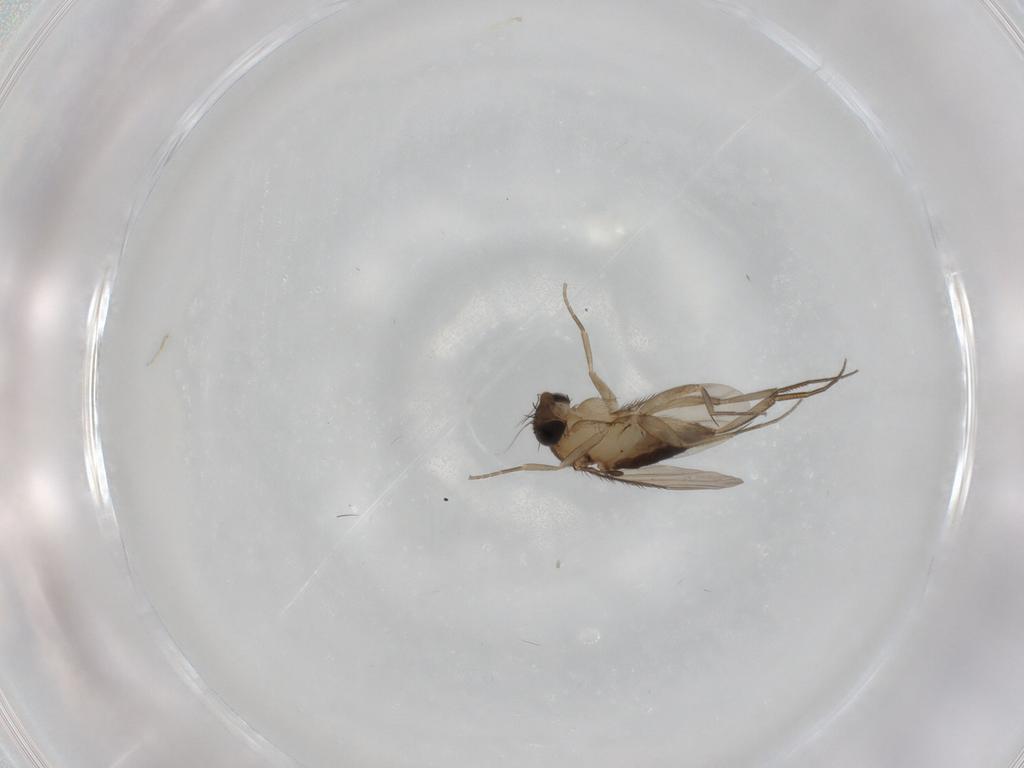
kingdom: Animalia
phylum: Arthropoda
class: Insecta
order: Diptera
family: Phoridae
